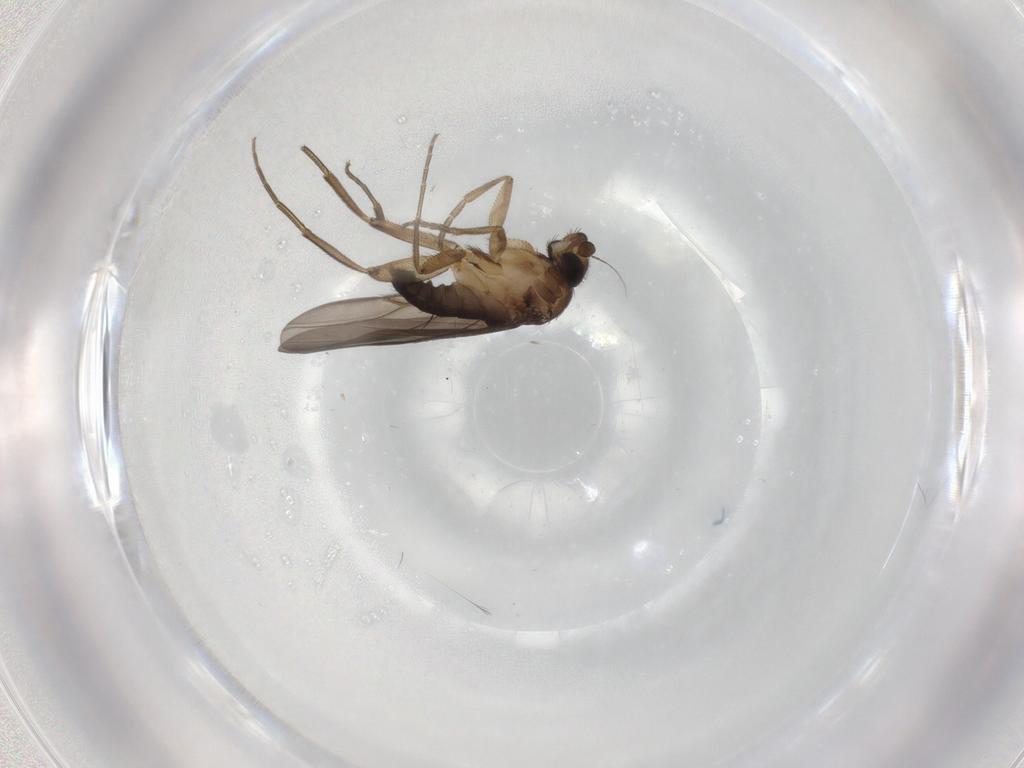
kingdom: Animalia
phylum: Arthropoda
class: Insecta
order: Diptera
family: Phoridae
